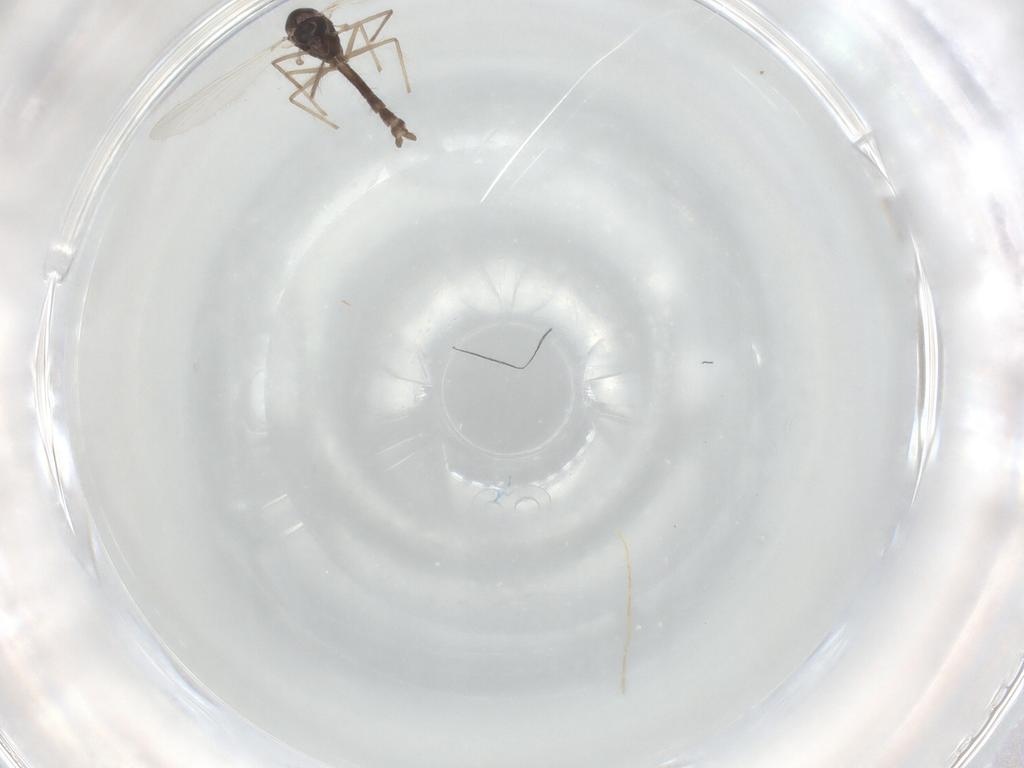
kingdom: Animalia
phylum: Arthropoda
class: Insecta
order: Diptera
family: Chironomidae
